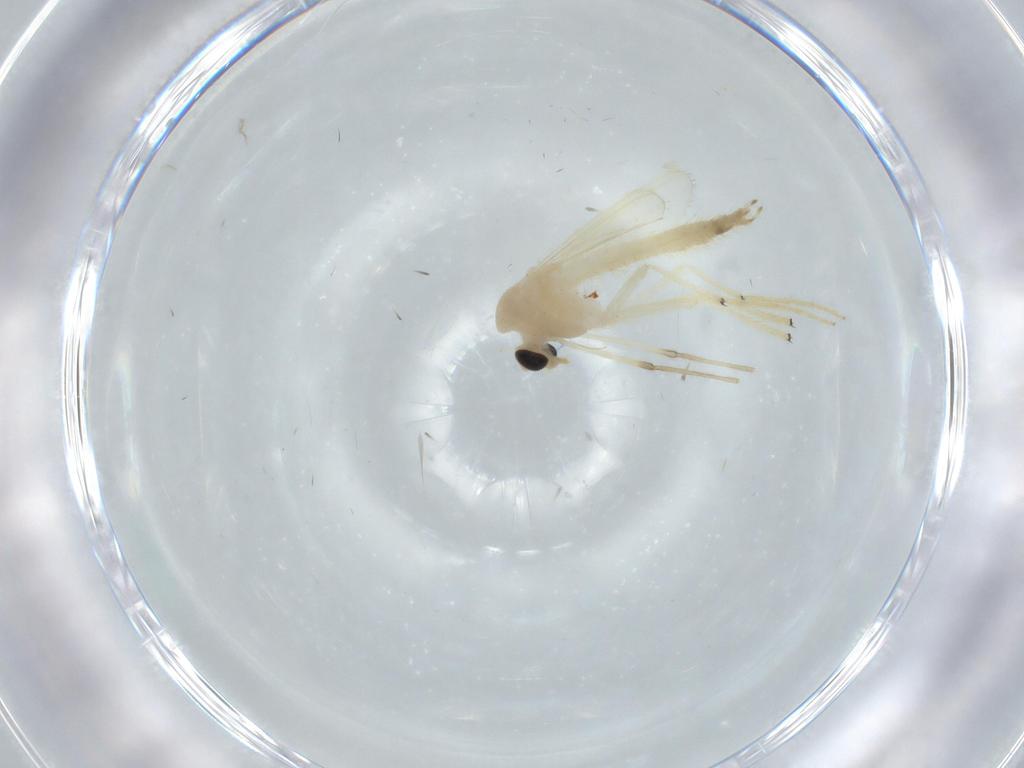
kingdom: Animalia
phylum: Arthropoda
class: Insecta
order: Diptera
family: Chironomidae
